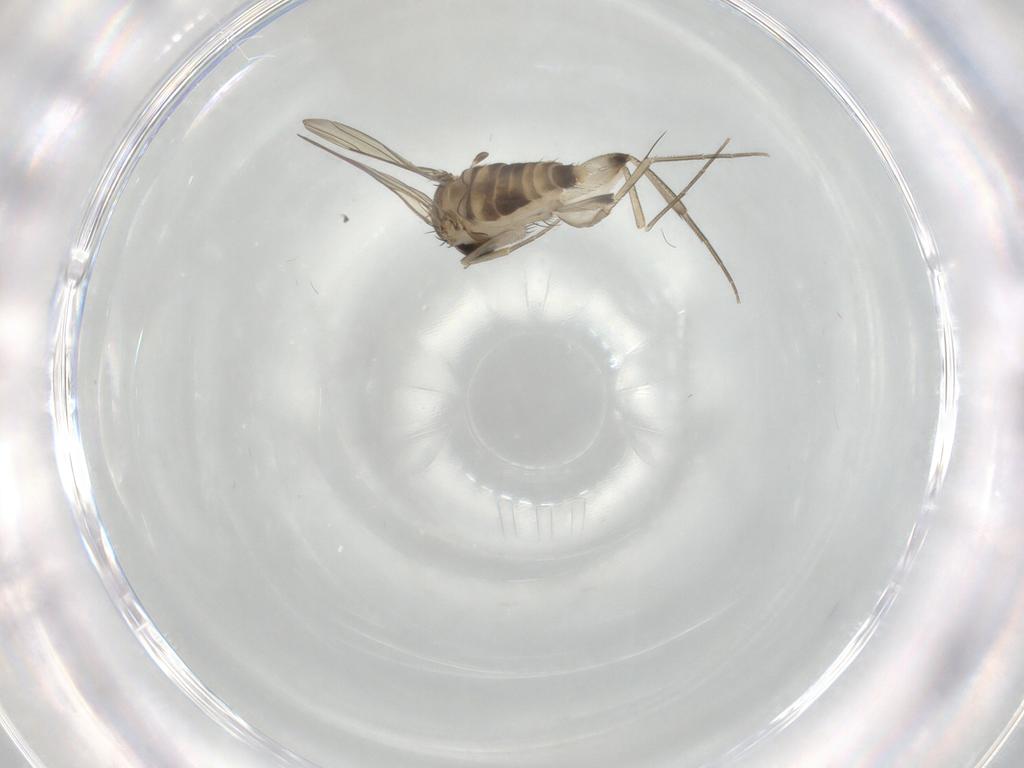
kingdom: Animalia
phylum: Arthropoda
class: Insecta
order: Diptera
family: Phoridae
